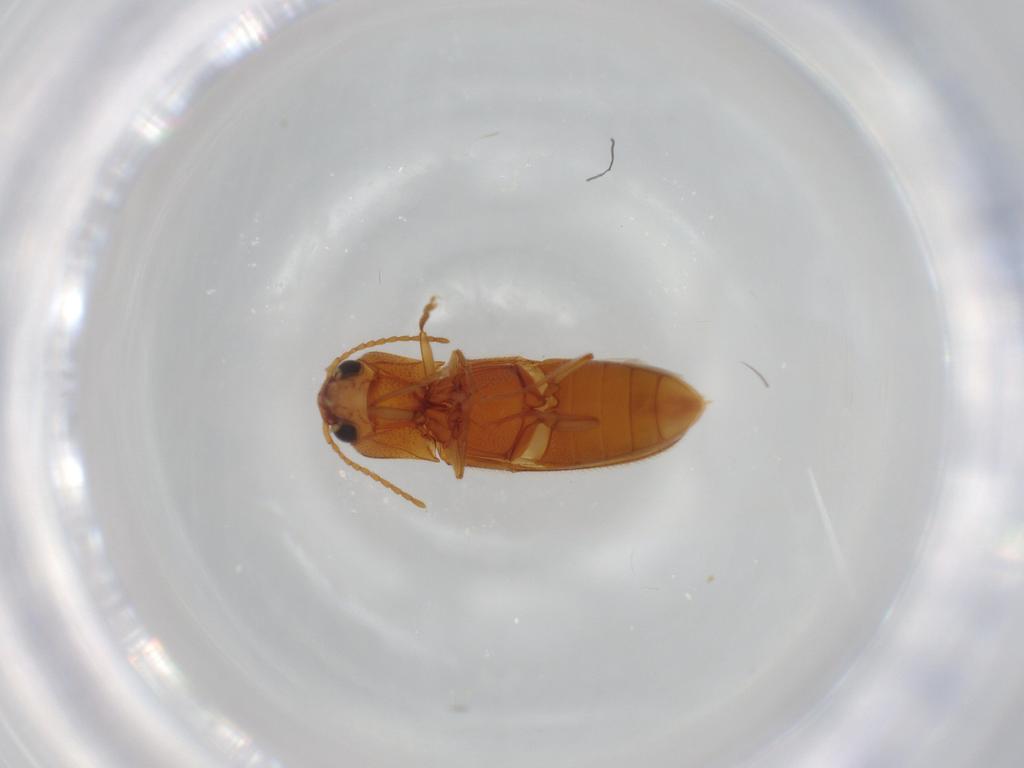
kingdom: Animalia
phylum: Arthropoda
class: Insecta
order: Coleoptera
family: Elateridae
